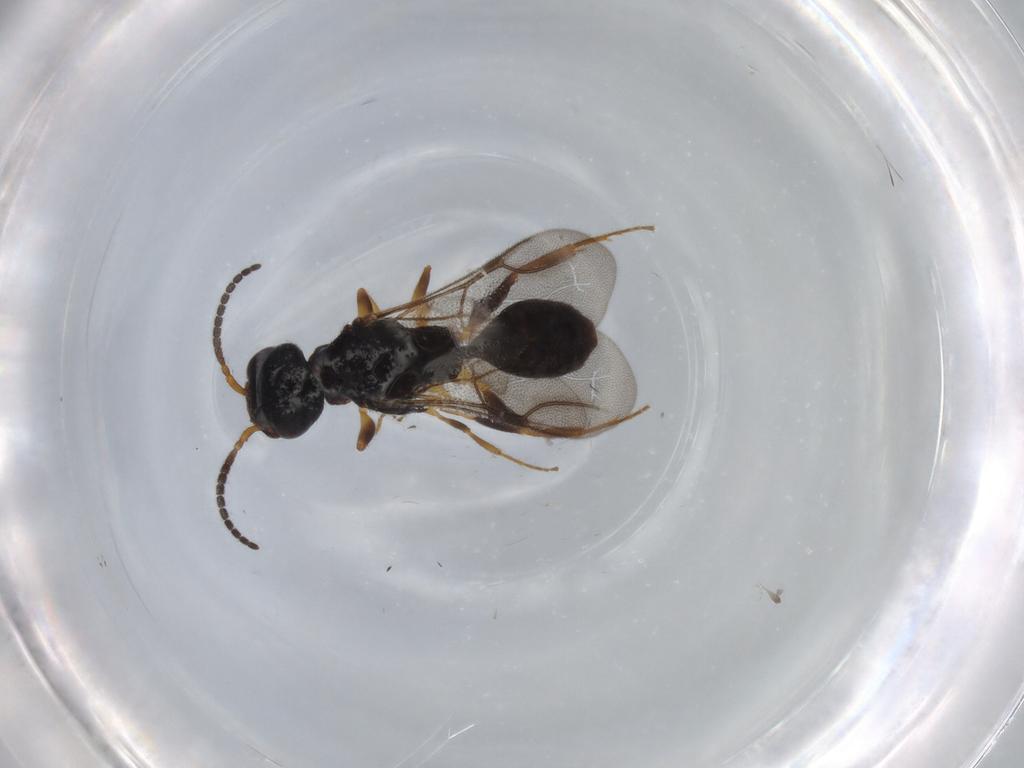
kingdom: Animalia
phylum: Arthropoda
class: Insecta
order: Hymenoptera
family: Bethylidae
